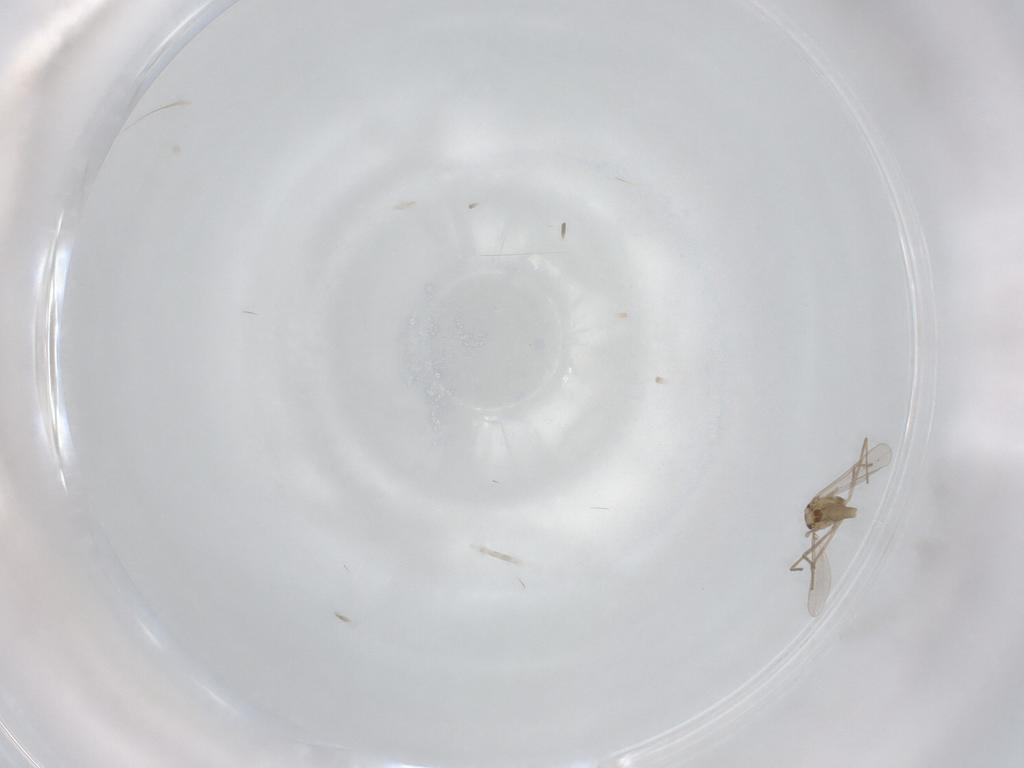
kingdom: Animalia
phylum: Arthropoda
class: Insecta
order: Diptera
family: Chironomidae
